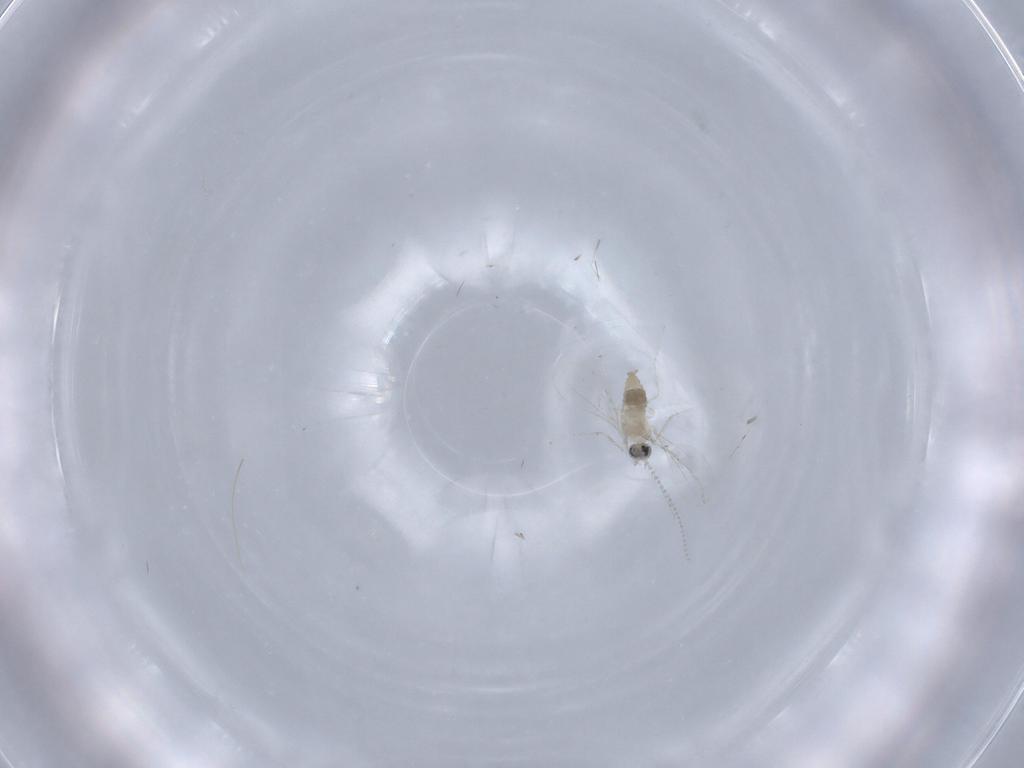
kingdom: Animalia
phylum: Arthropoda
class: Insecta
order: Diptera
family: Cecidomyiidae
